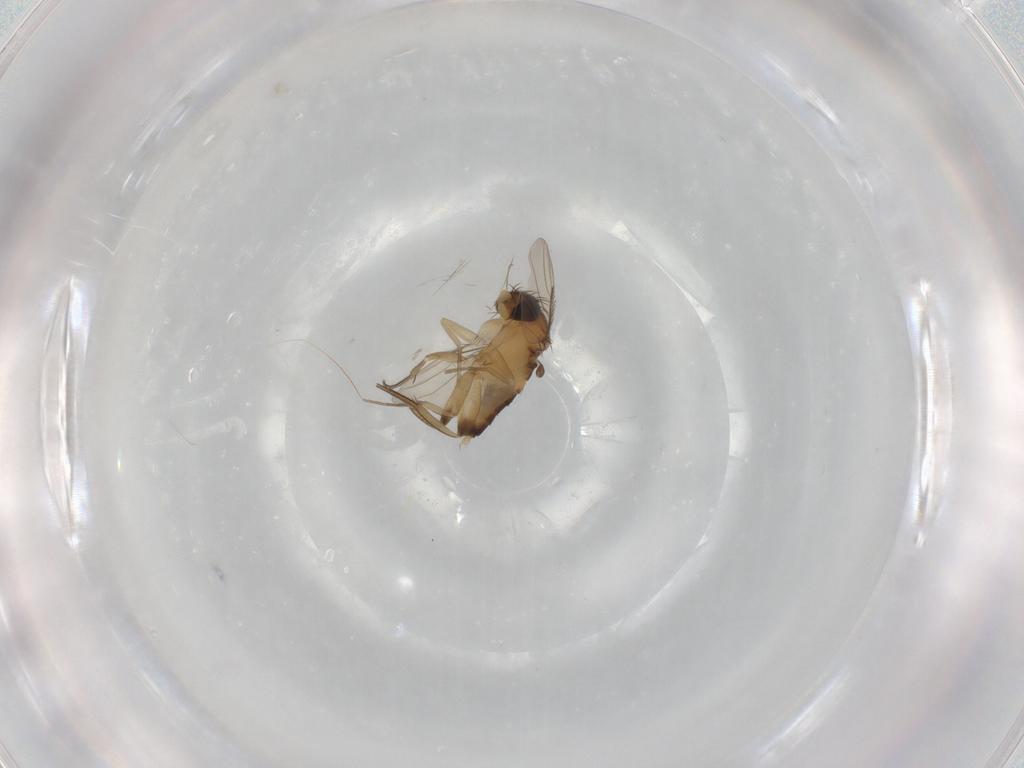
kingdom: Animalia
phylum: Arthropoda
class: Insecta
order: Diptera
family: Phoridae
